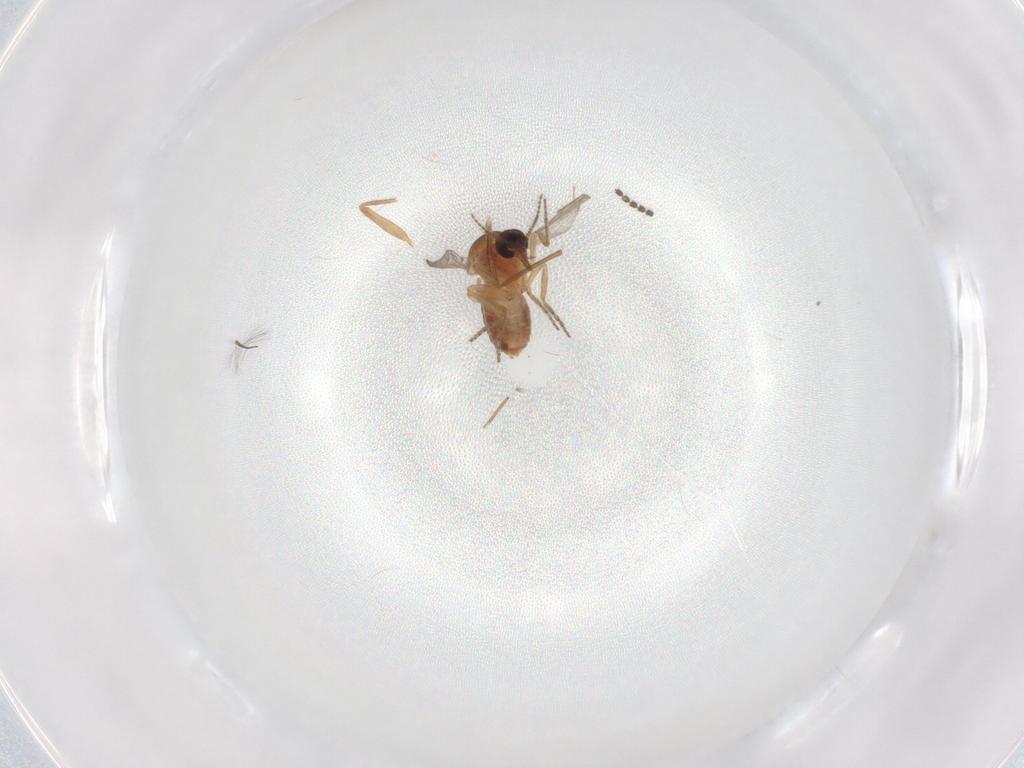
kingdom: Animalia
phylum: Arthropoda
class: Insecta
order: Diptera
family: Ceratopogonidae
